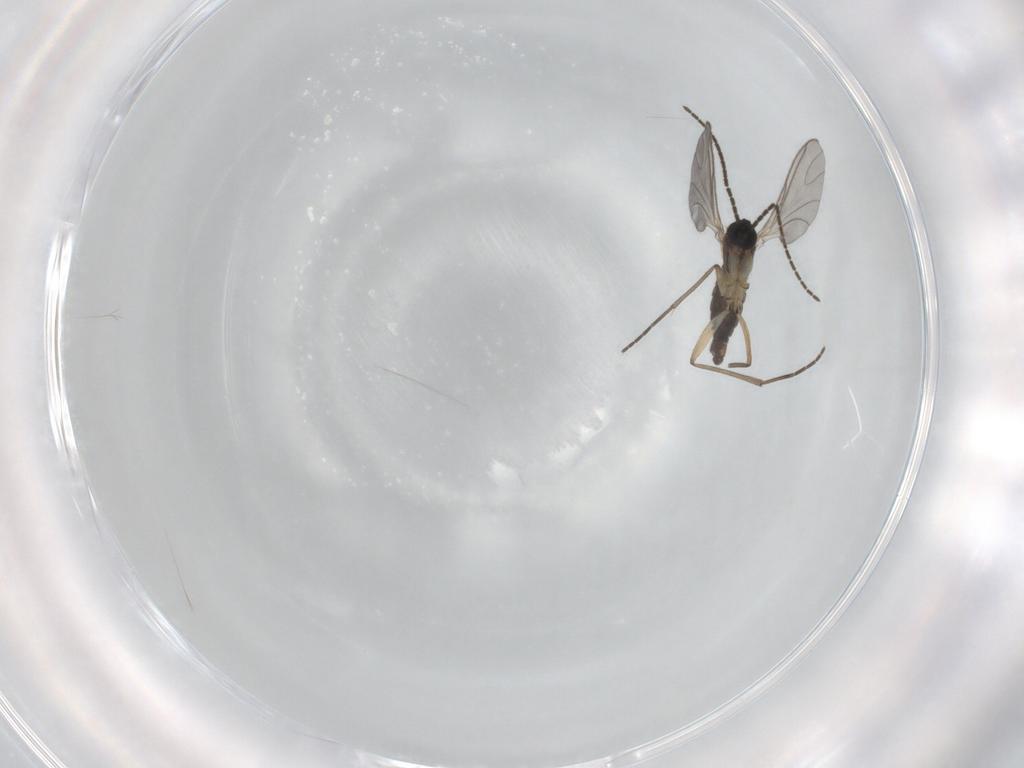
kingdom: Animalia
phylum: Arthropoda
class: Insecta
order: Diptera
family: Sciaridae
